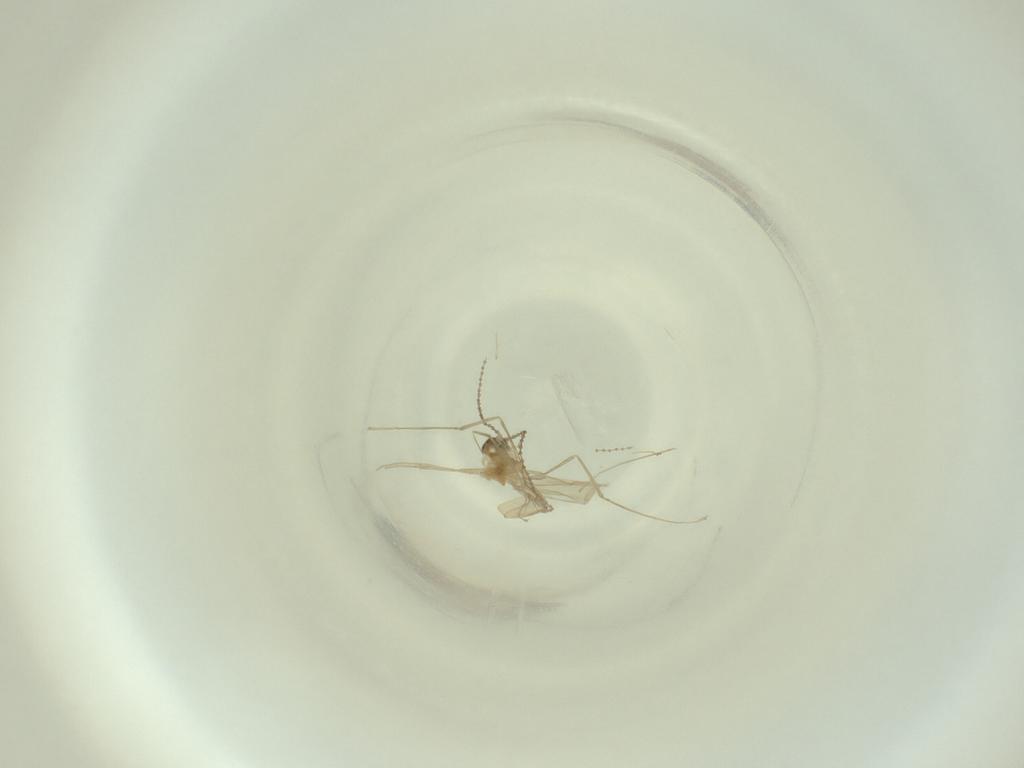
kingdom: Animalia
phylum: Arthropoda
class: Insecta
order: Diptera
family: Cecidomyiidae
